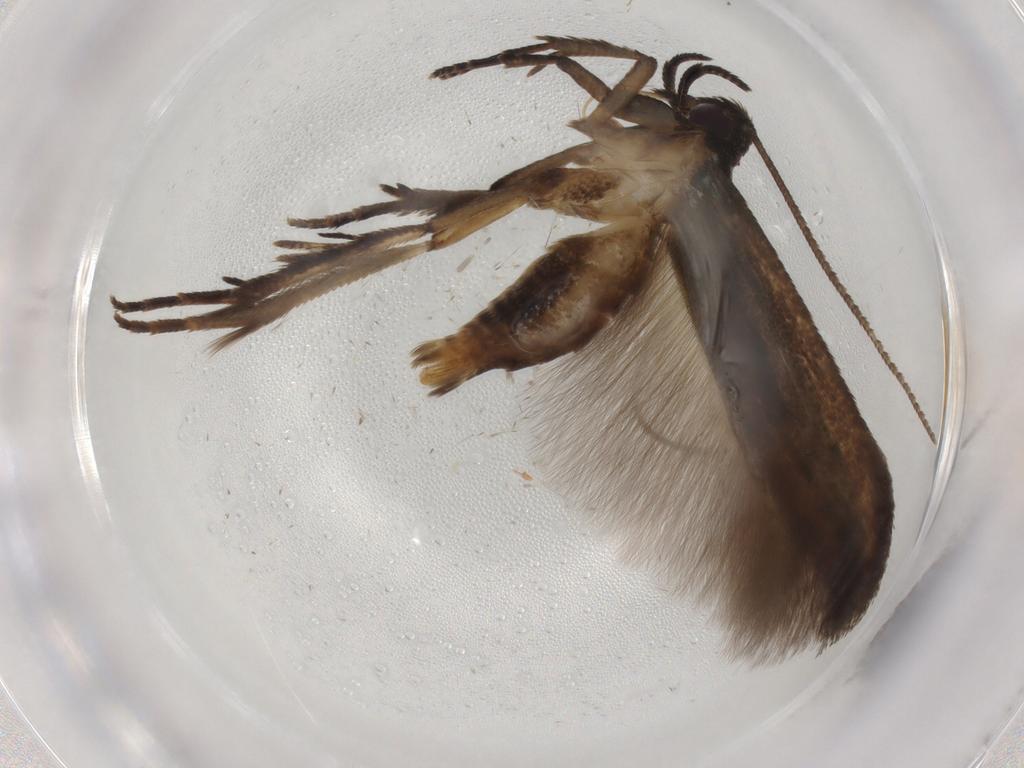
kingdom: Animalia
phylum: Arthropoda
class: Insecta
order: Lepidoptera
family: Cosmopterigidae
